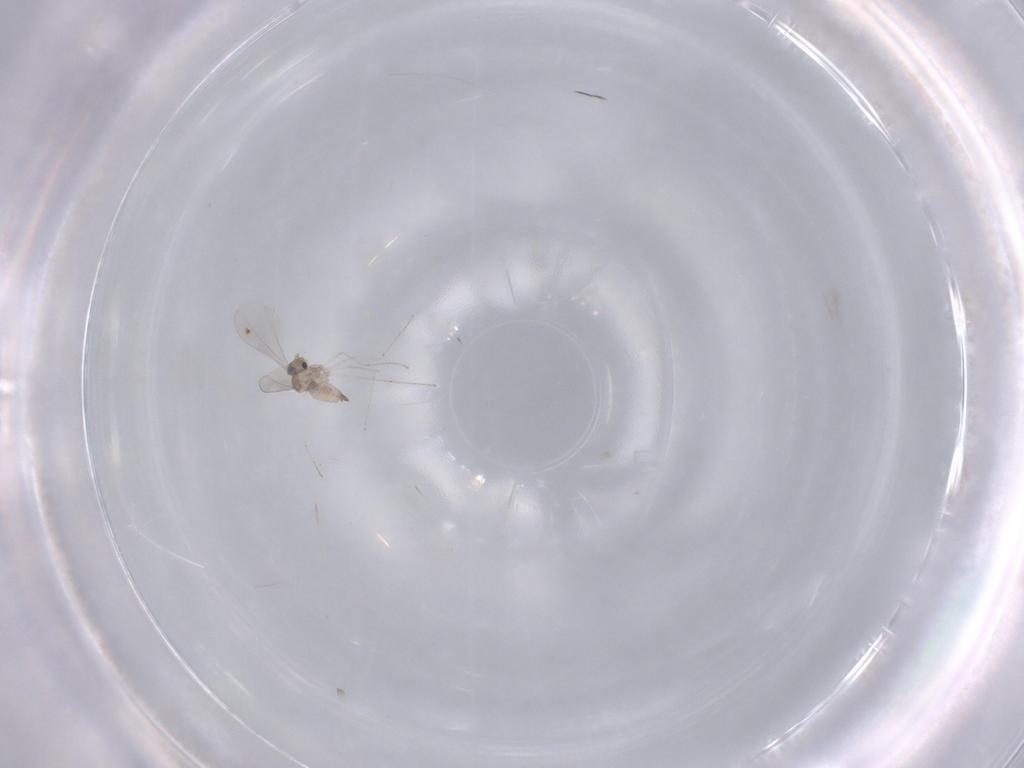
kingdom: Animalia
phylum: Arthropoda
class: Insecta
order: Diptera
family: Cecidomyiidae
